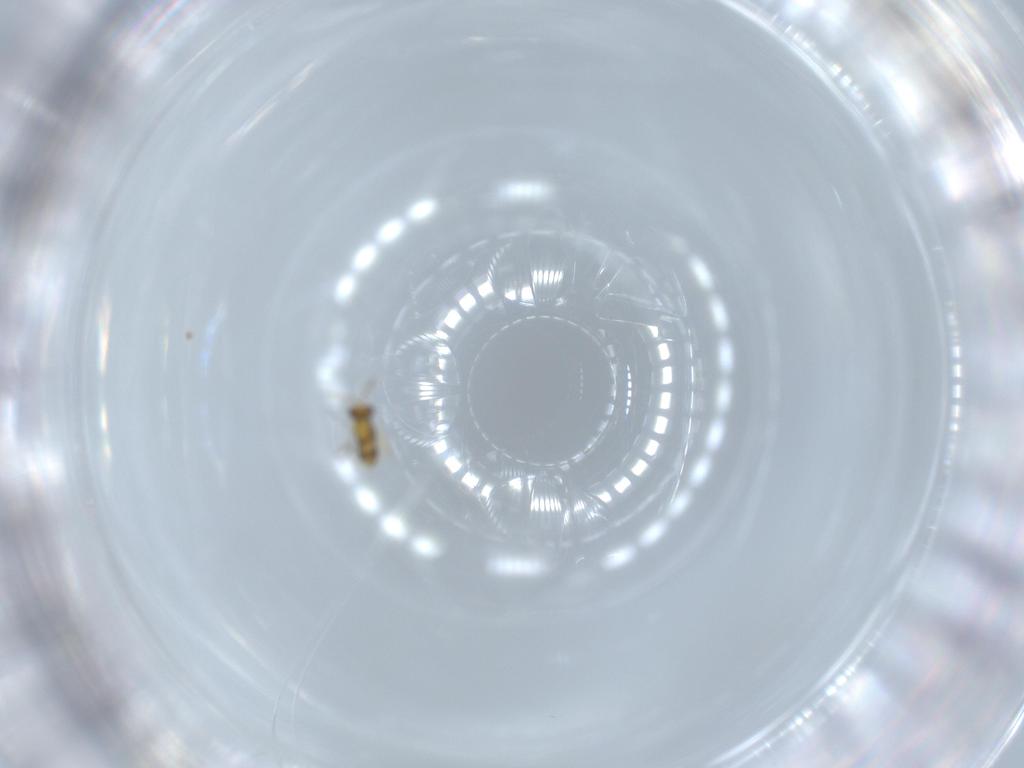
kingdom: Animalia
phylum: Arthropoda
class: Insecta
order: Hymenoptera
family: Aphelinidae
